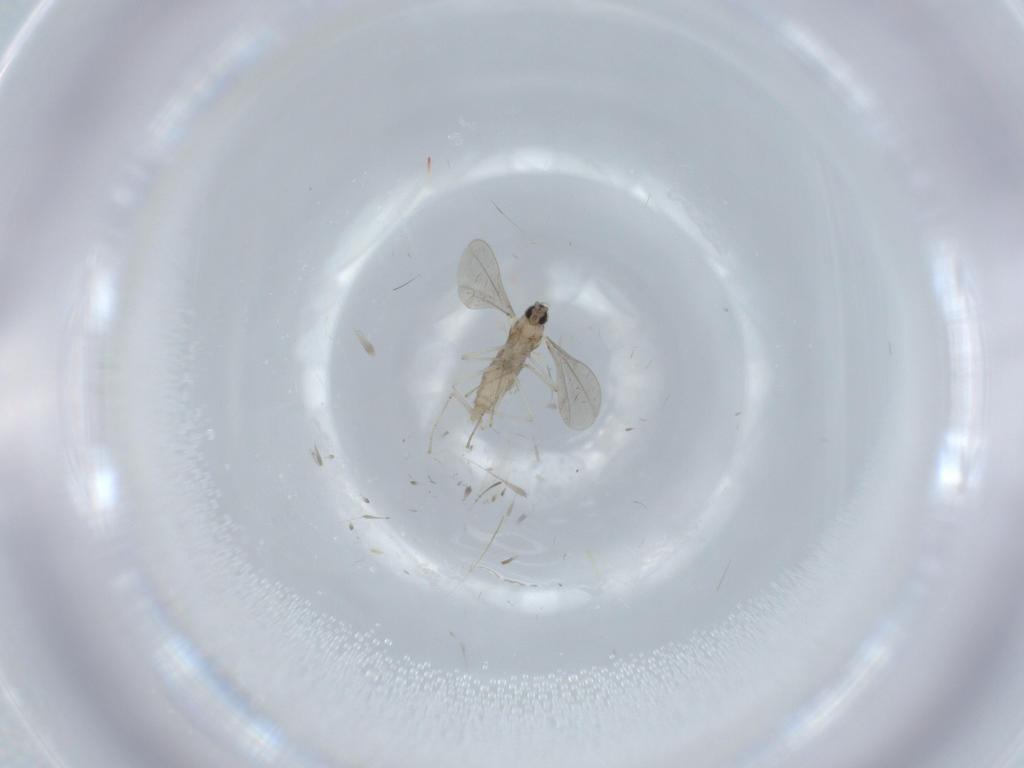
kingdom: Animalia
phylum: Arthropoda
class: Insecta
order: Diptera
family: Cecidomyiidae
